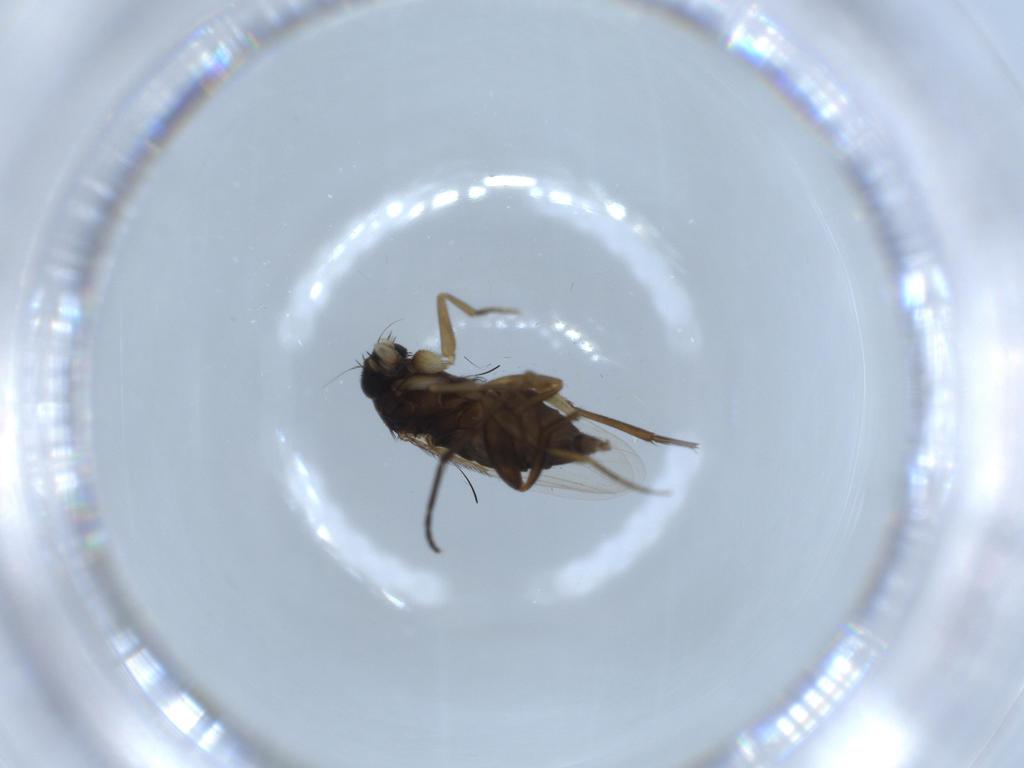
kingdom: Animalia
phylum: Arthropoda
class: Insecta
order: Diptera
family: Phoridae
